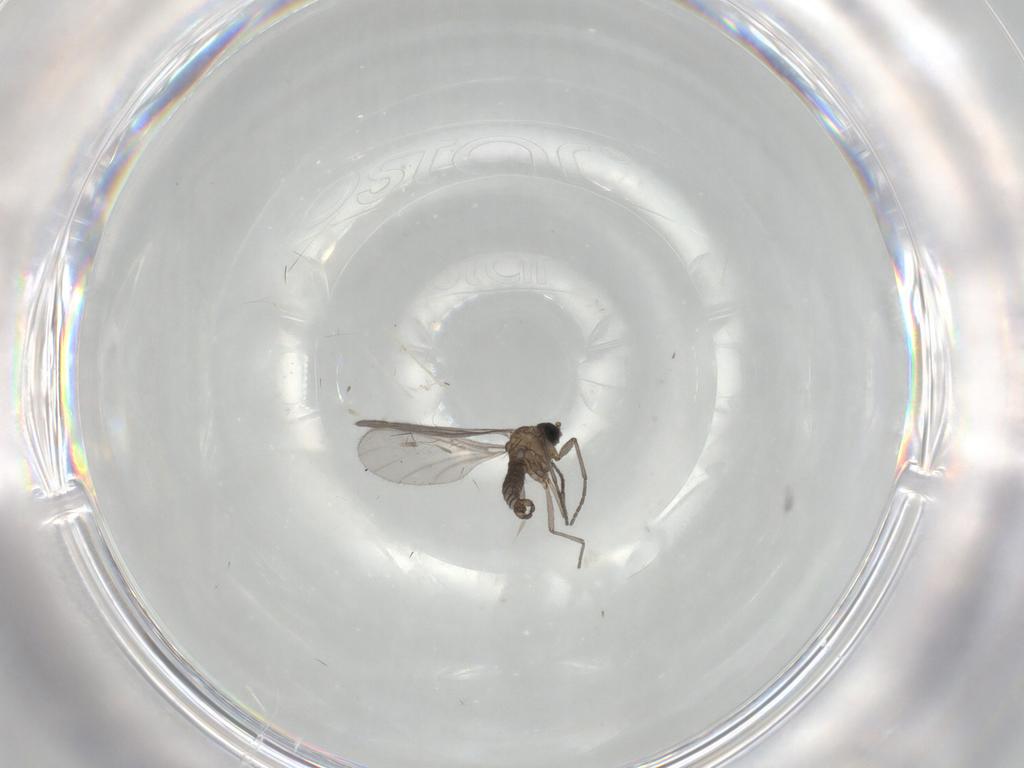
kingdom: Animalia
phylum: Arthropoda
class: Insecta
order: Diptera
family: Sciaridae
